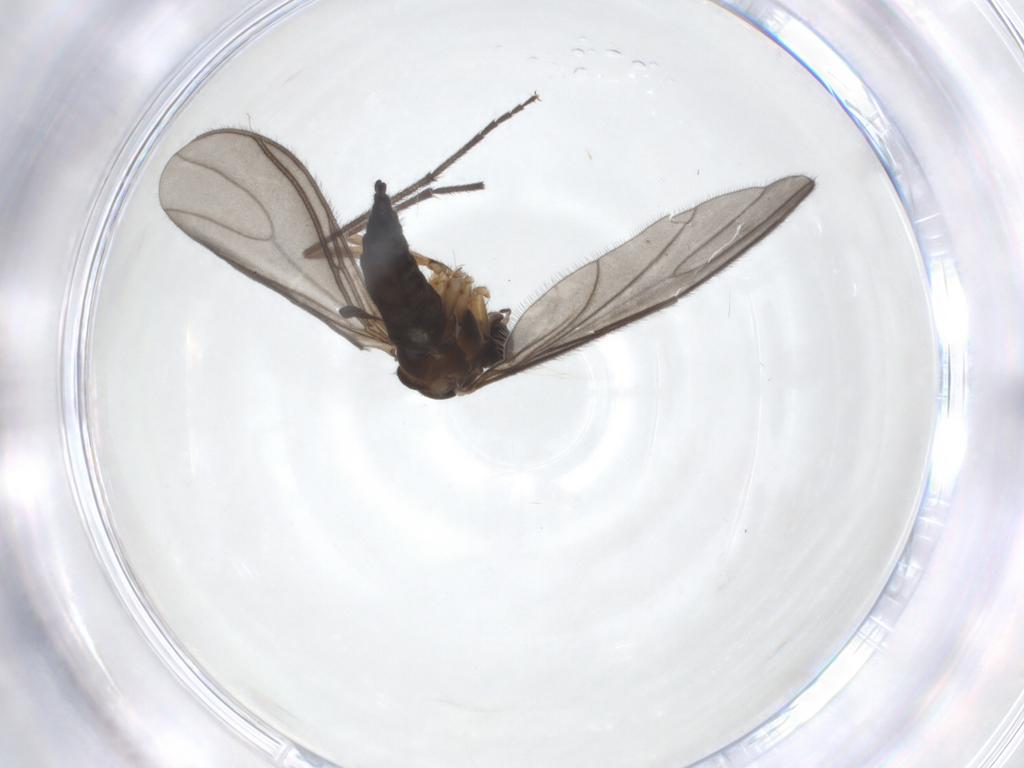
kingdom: Animalia
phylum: Arthropoda
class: Insecta
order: Diptera
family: Sciaridae
